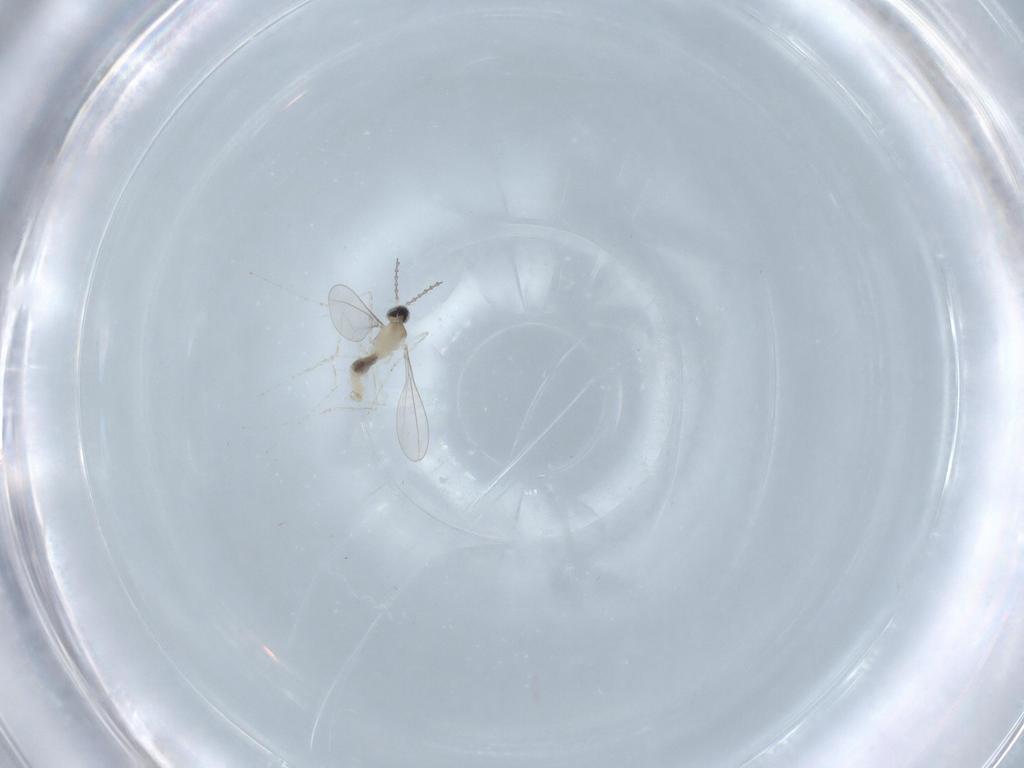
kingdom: Animalia
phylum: Arthropoda
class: Insecta
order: Diptera
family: Cecidomyiidae
